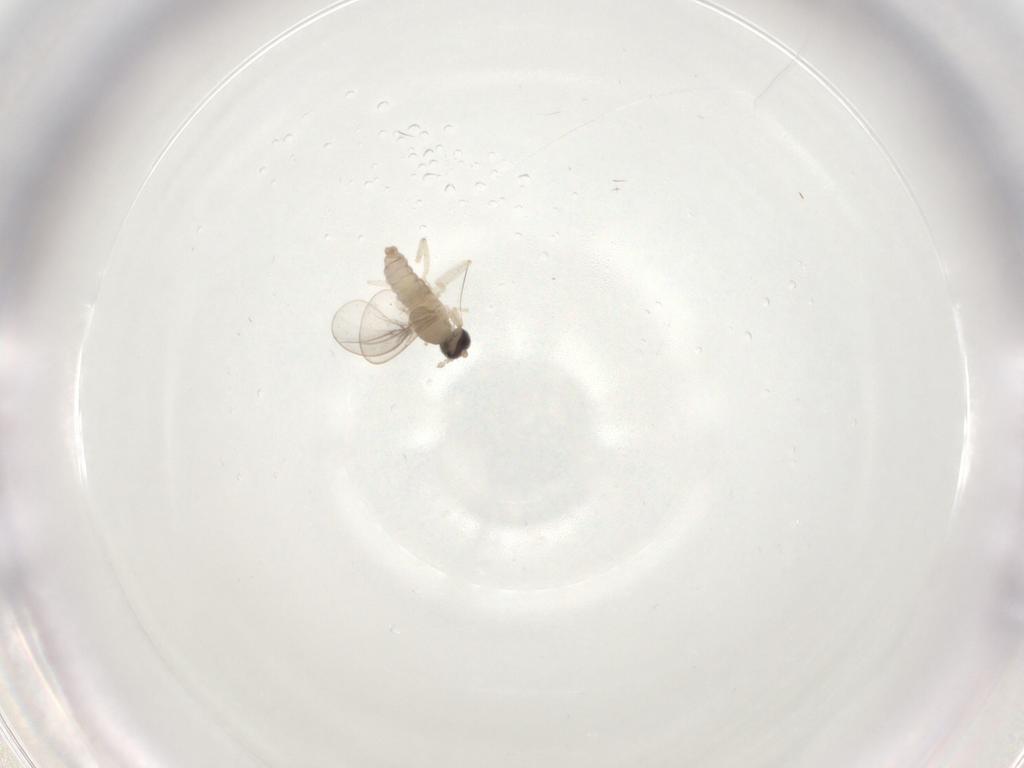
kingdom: Animalia
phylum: Arthropoda
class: Insecta
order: Diptera
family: Cecidomyiidae
